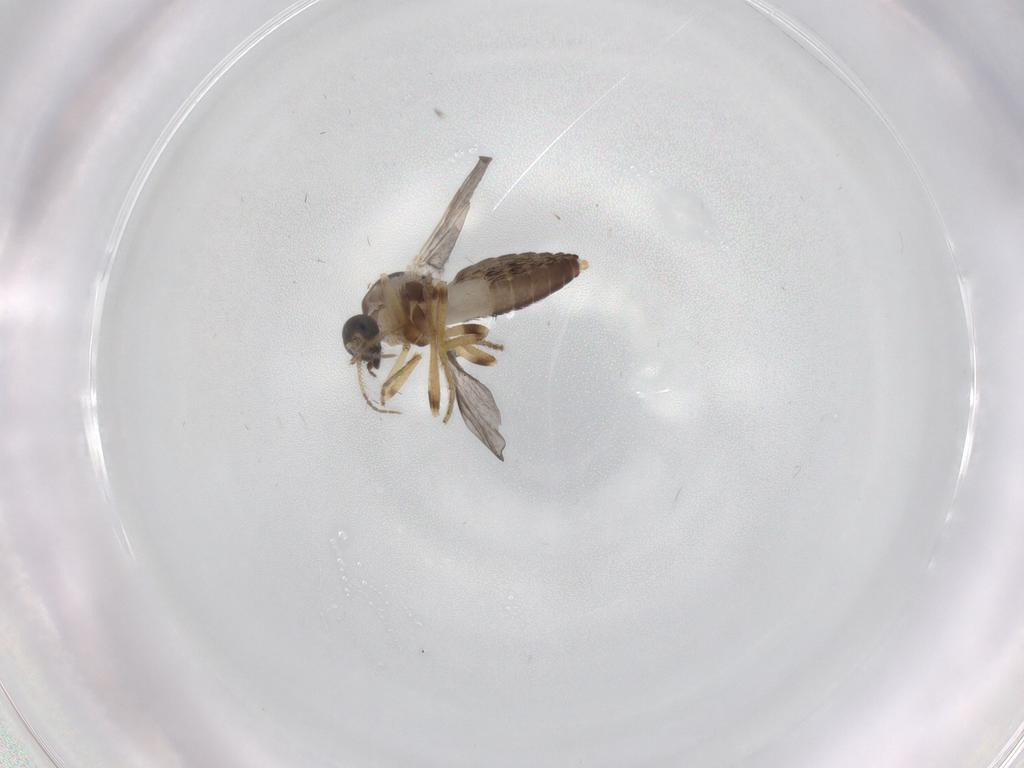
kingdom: Animalia
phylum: Arthropoda
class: Insecta
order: Diptera
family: Ceratopogonidae
